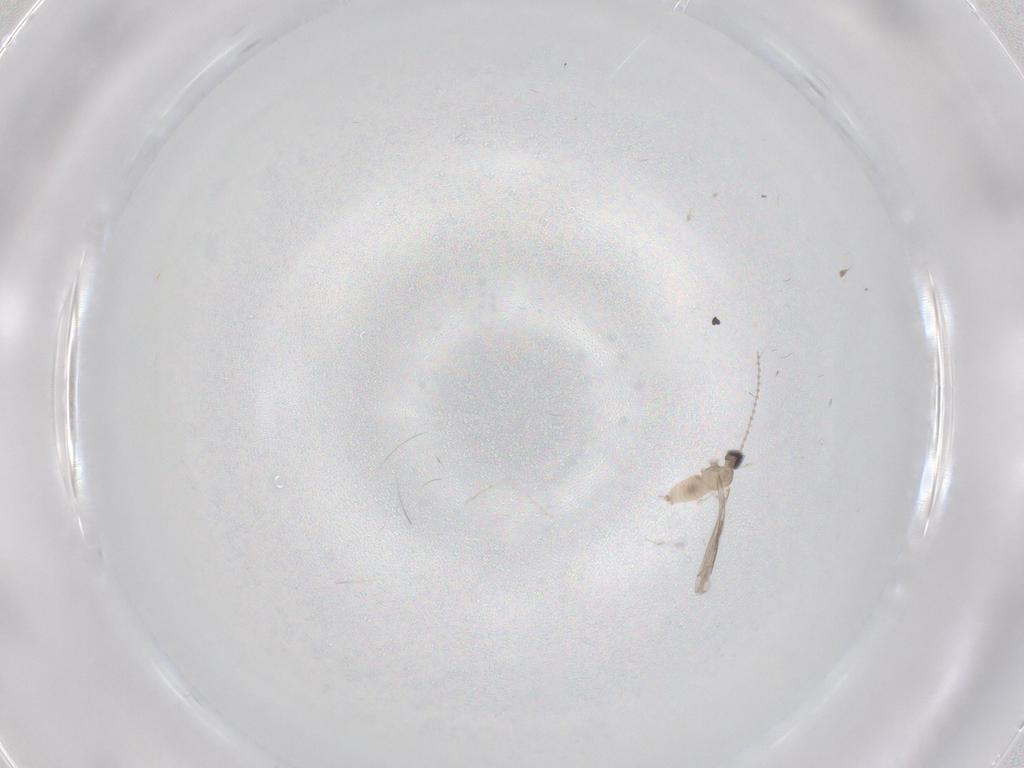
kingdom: Animalia
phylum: Arthropoda
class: Insecta
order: Diptera
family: Cecidomyiidae
